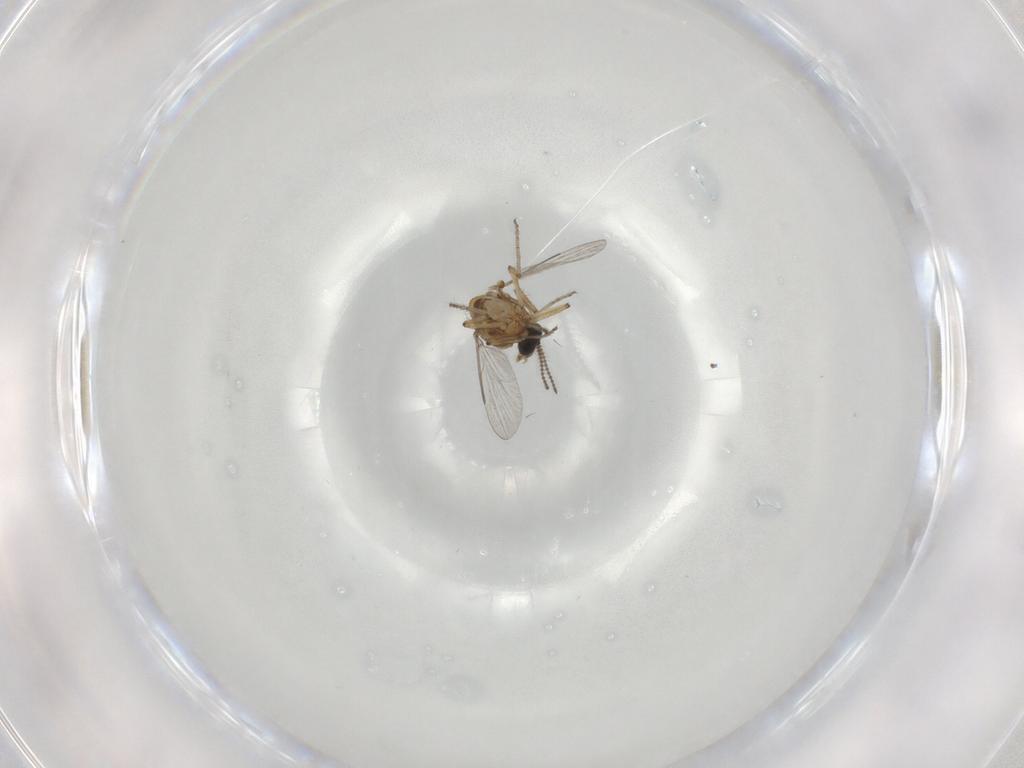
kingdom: Animalia
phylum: Arthropoda
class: Insecta
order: Diptera
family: Ceratopogonidae
